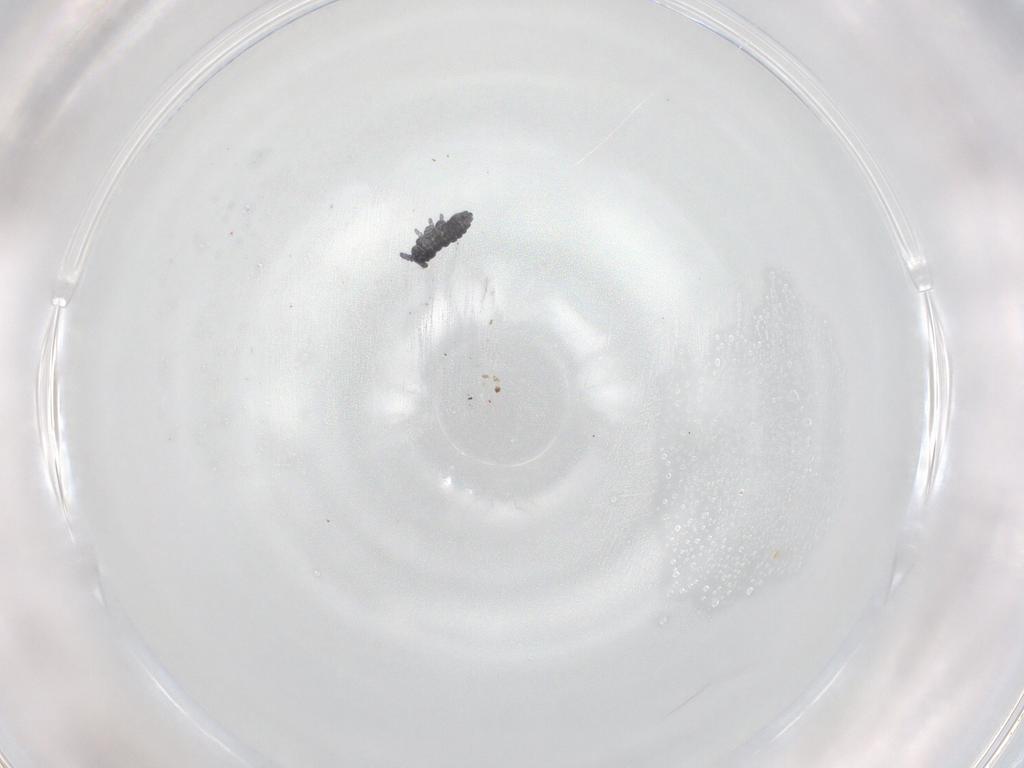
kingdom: Animalia
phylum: Arthropoda
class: Collembola
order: Poduromorpha
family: Neanuridae
